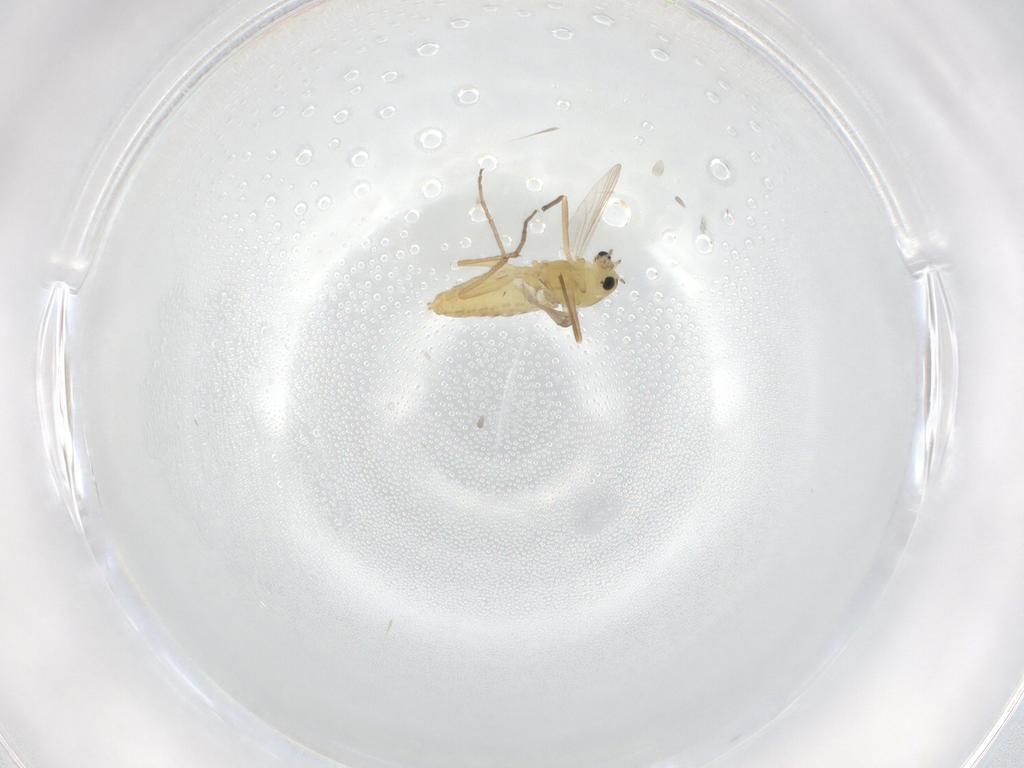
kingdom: Animalia
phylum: Arthropoda
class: Insecta
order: Diptera
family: Chironomidae
